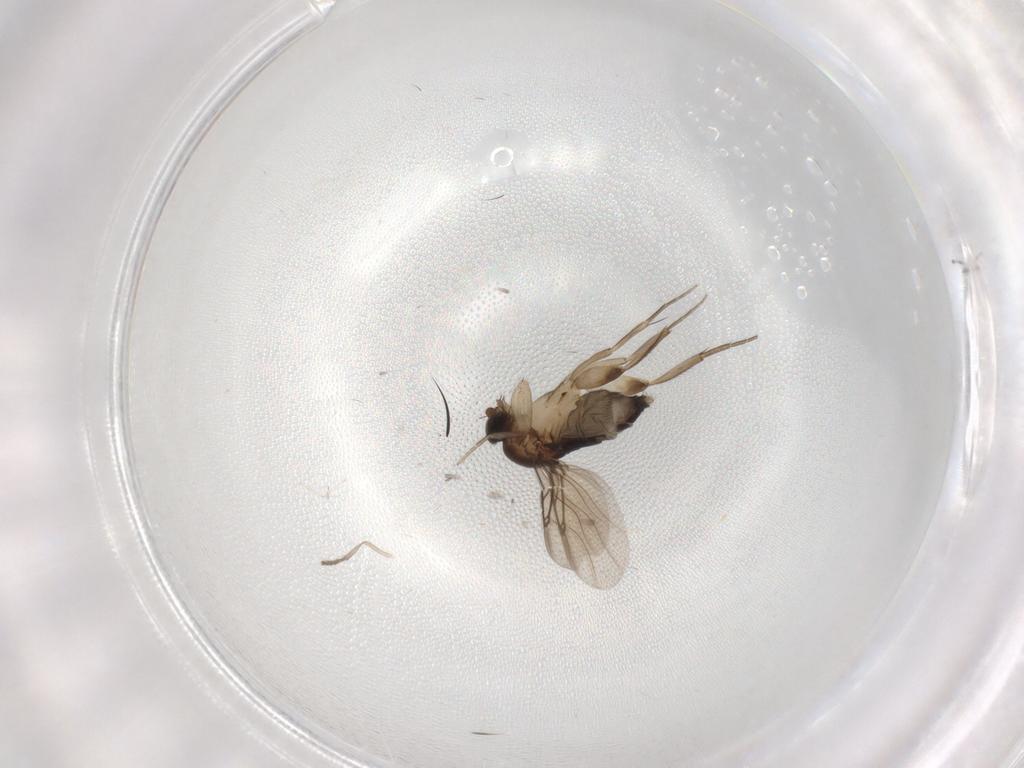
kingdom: Animalia
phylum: Arthropoda
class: Insecta
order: Diptera
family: Phoridae
